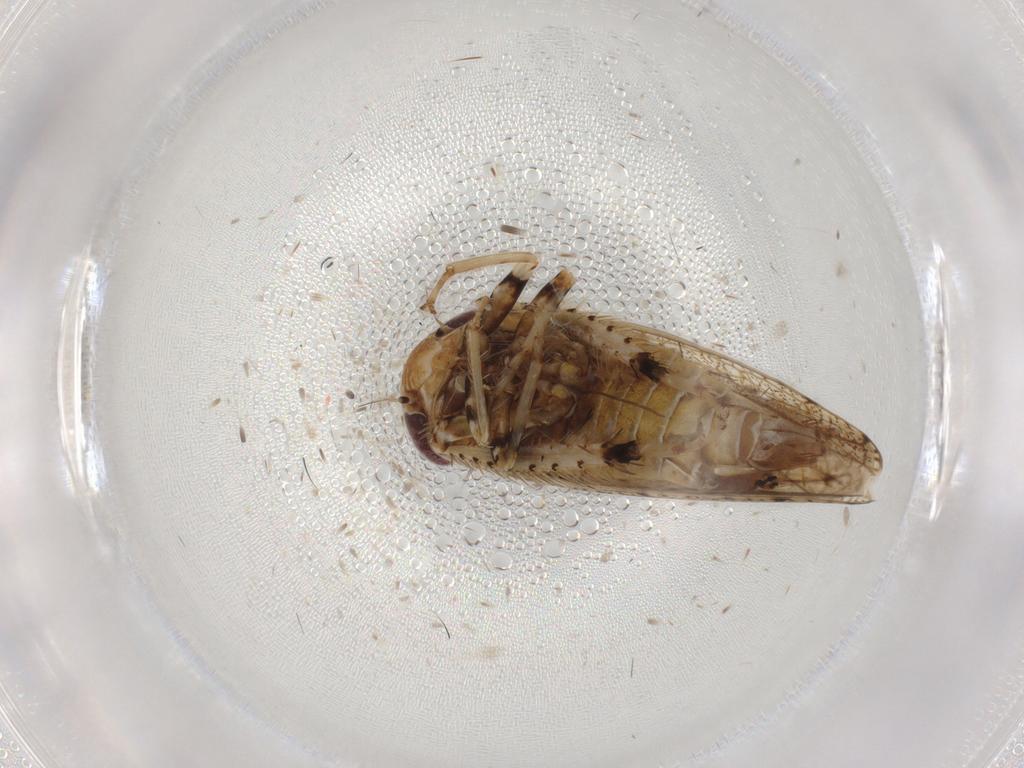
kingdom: Animalia
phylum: Arthropoda
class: Insecta
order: Hemiptera
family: Cicadellidae
